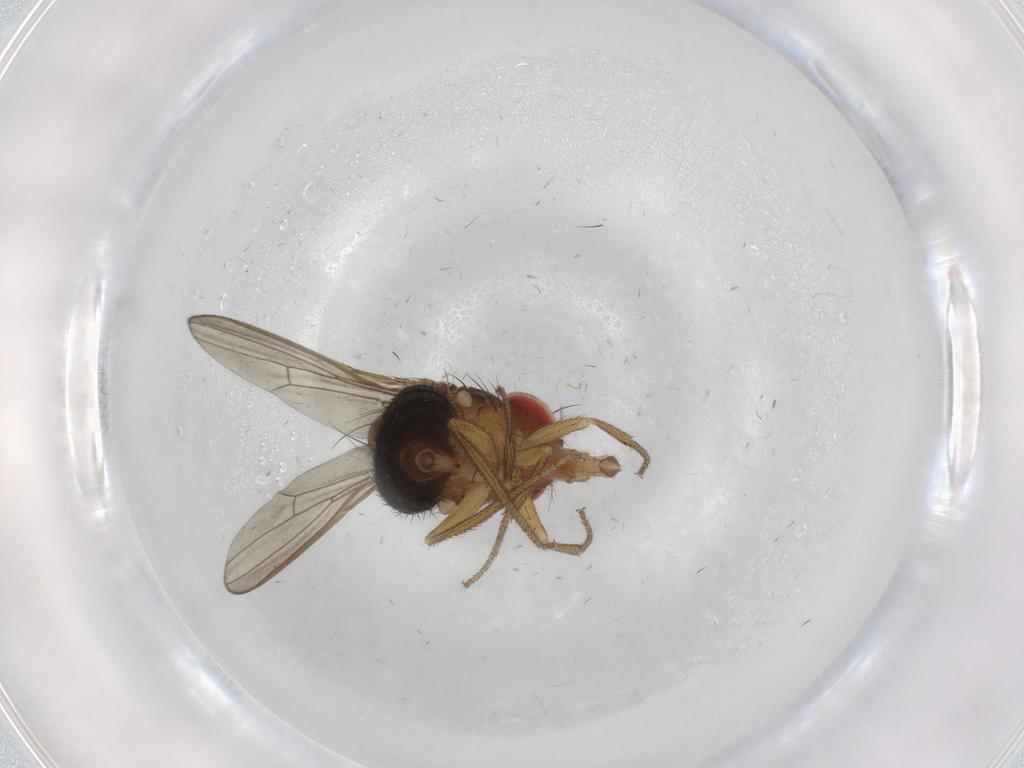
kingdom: Animalia
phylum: Arthropoda
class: Insecta
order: Diptera
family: Drosophilidae
